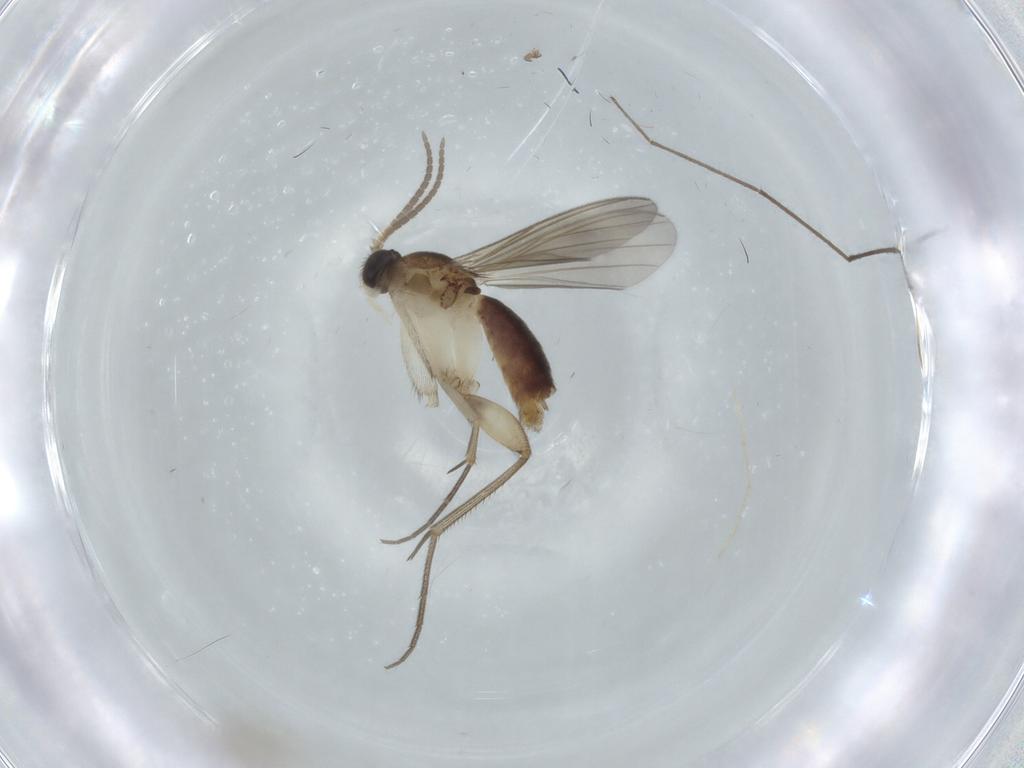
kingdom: Animalia
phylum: Arthropoda
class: Insecta
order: Diptera
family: Mycetophilidae
